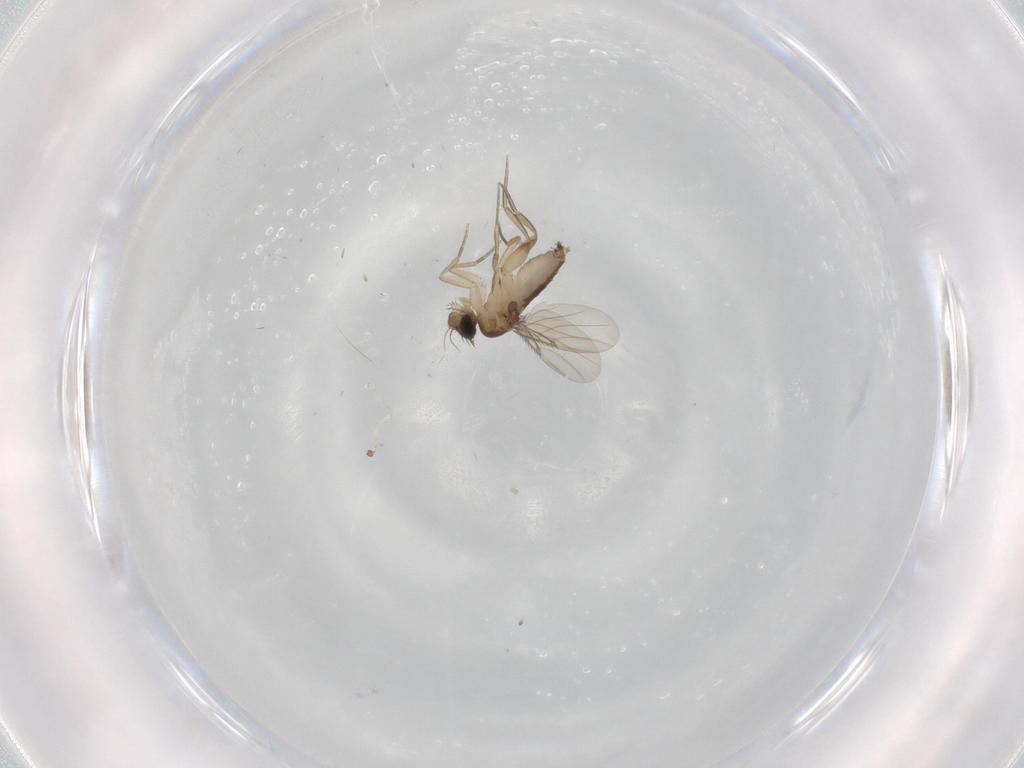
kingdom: Animalia
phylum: Arthropoda
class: Insecta
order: Diptera
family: Phoridae
